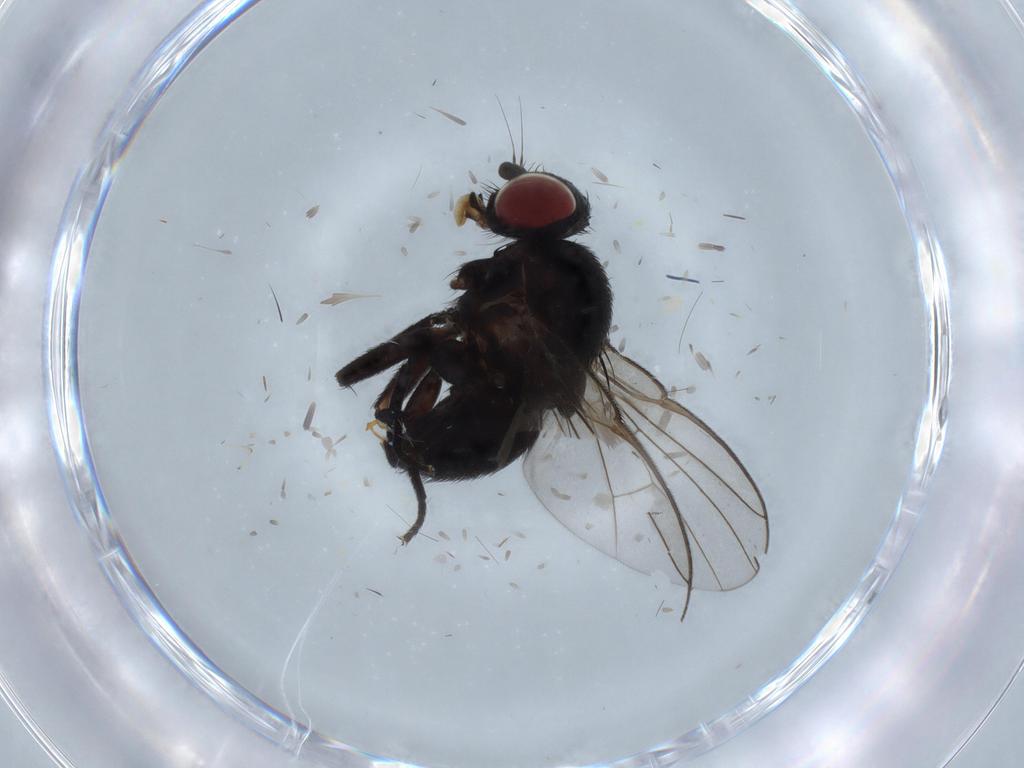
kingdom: Animalia
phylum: Arthropoda
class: Insecta
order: Diptera
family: Agromyzidae
